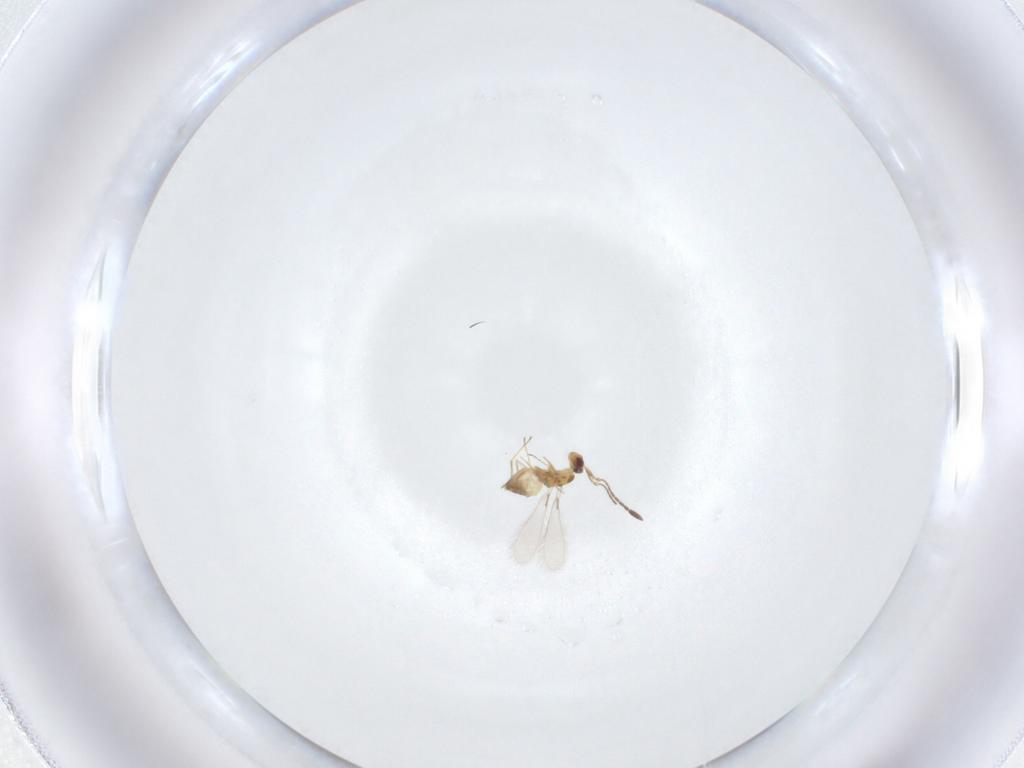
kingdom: Animalia
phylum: Arthropoda
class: Insecta
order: Hymenoptera
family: Mymaridae
